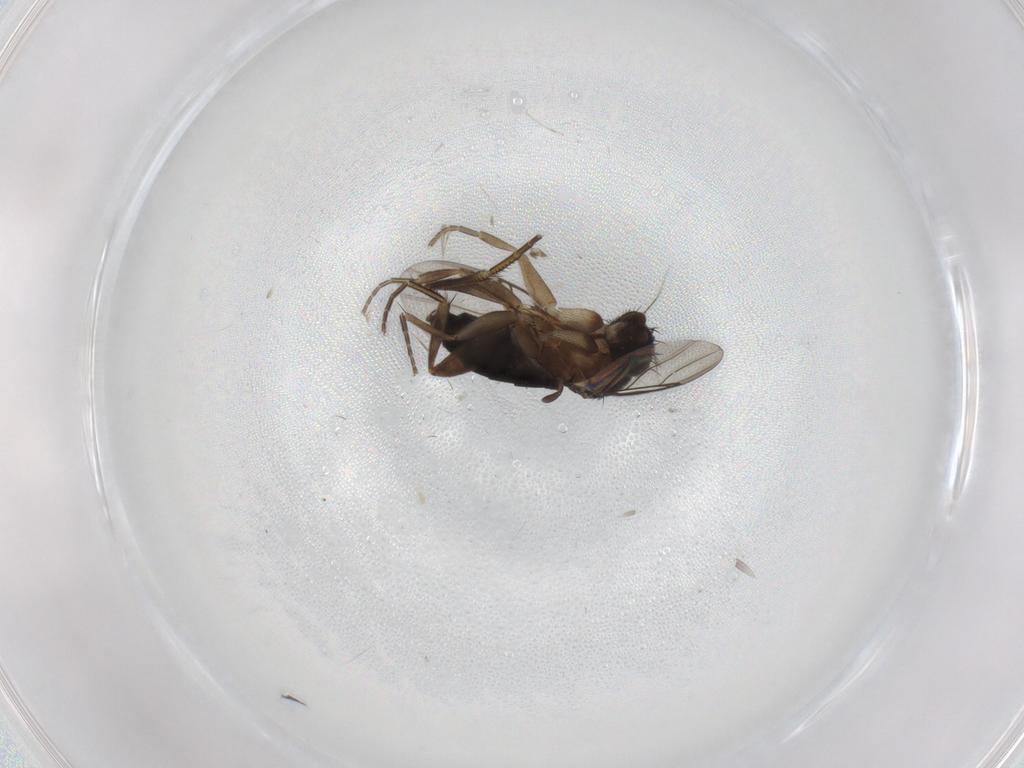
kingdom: Animalia
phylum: Arthropoda
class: Insecta
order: Diptera
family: Phoridae
